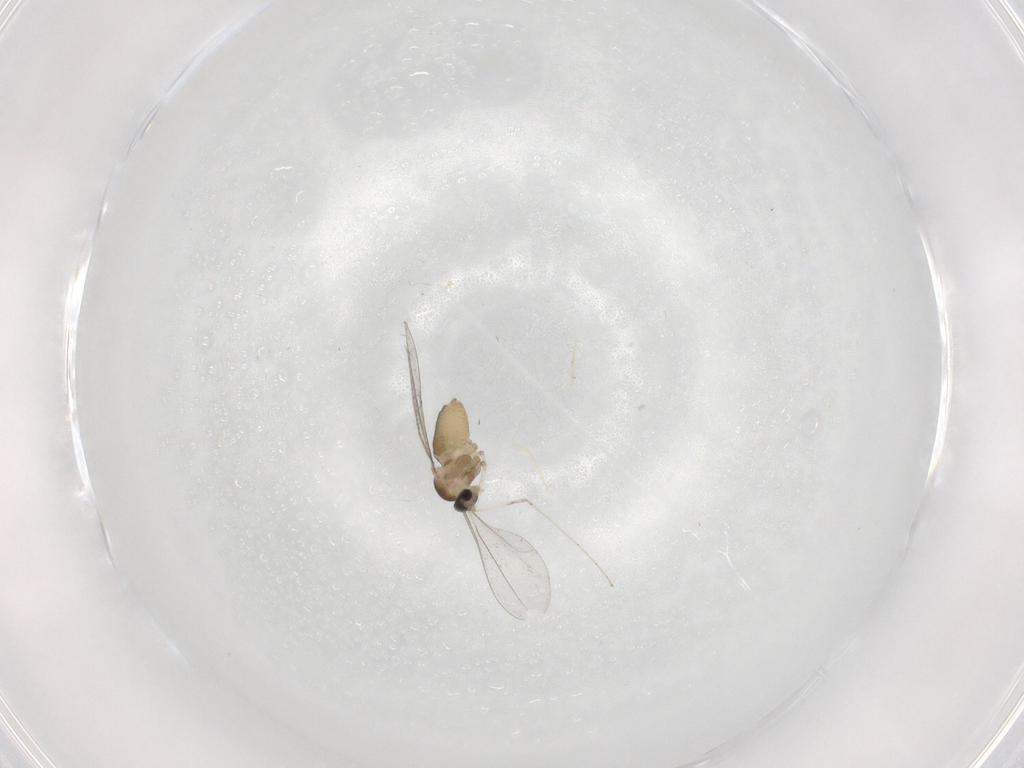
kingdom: Animalia
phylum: Arthropoda
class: Insecta
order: Diptera
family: Cecidomyiidae
